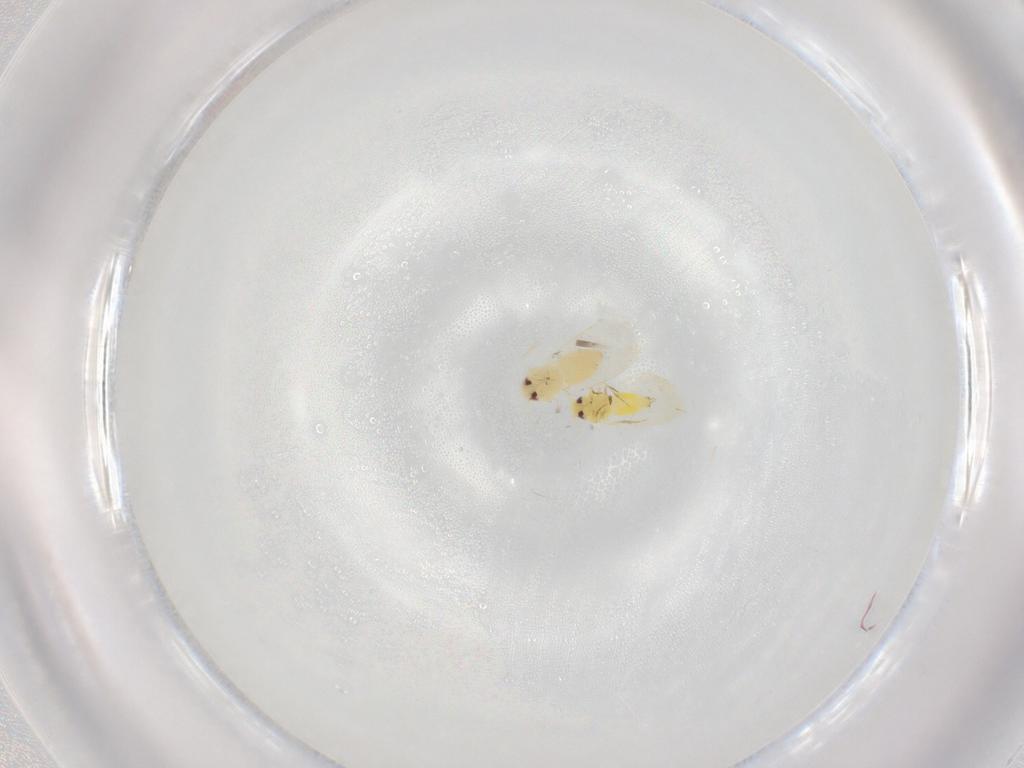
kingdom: Animalia
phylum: Arthropoda
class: Insecta
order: Hemiptera
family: Aleyrodidae
